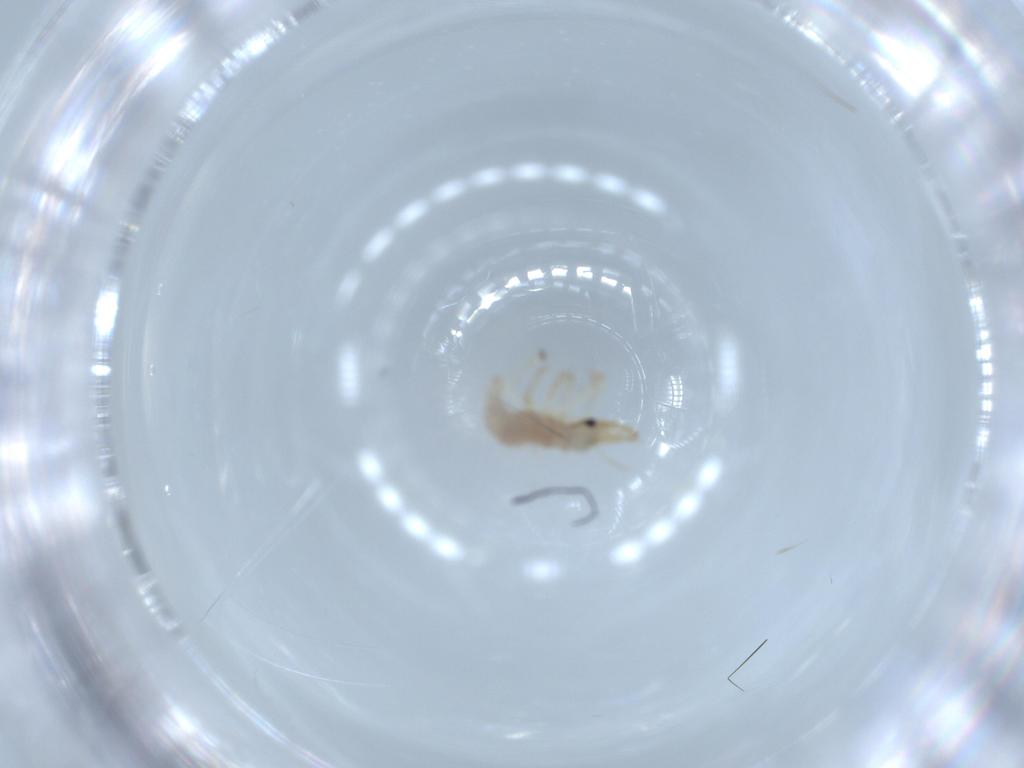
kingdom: Animalia
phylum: Arthropoda
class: Insecta
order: Neuroptera
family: Chrysopidae
